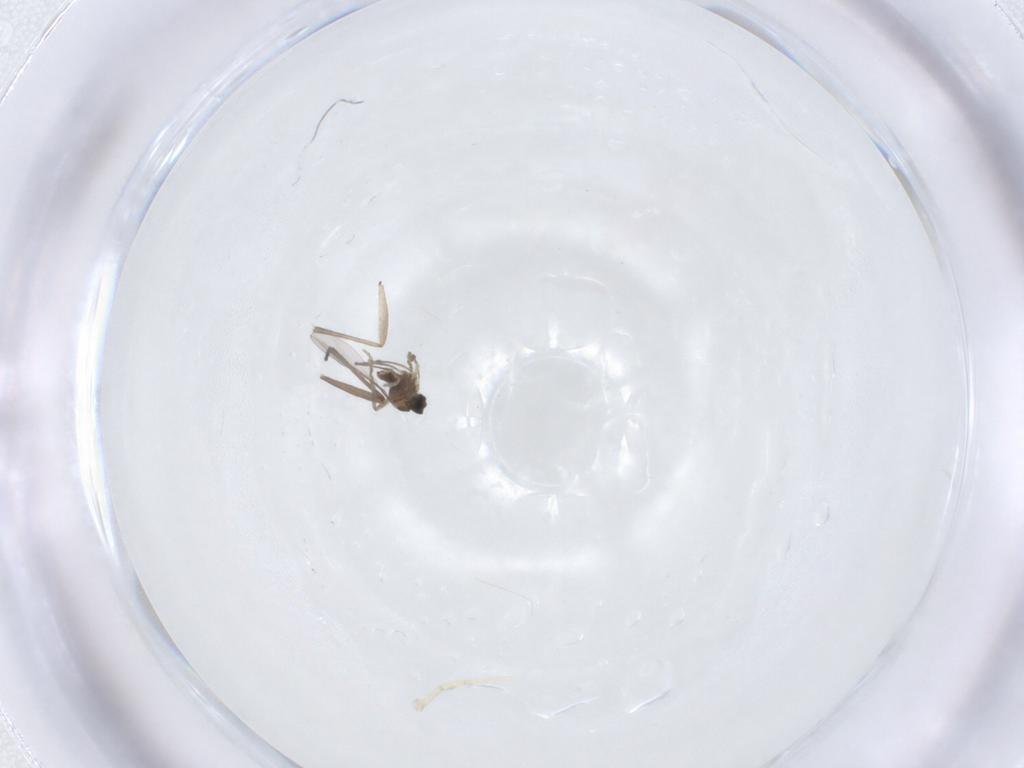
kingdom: Animalia
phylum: Arthropoda
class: Insecta
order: Diptera
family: Cecidomyiidae
